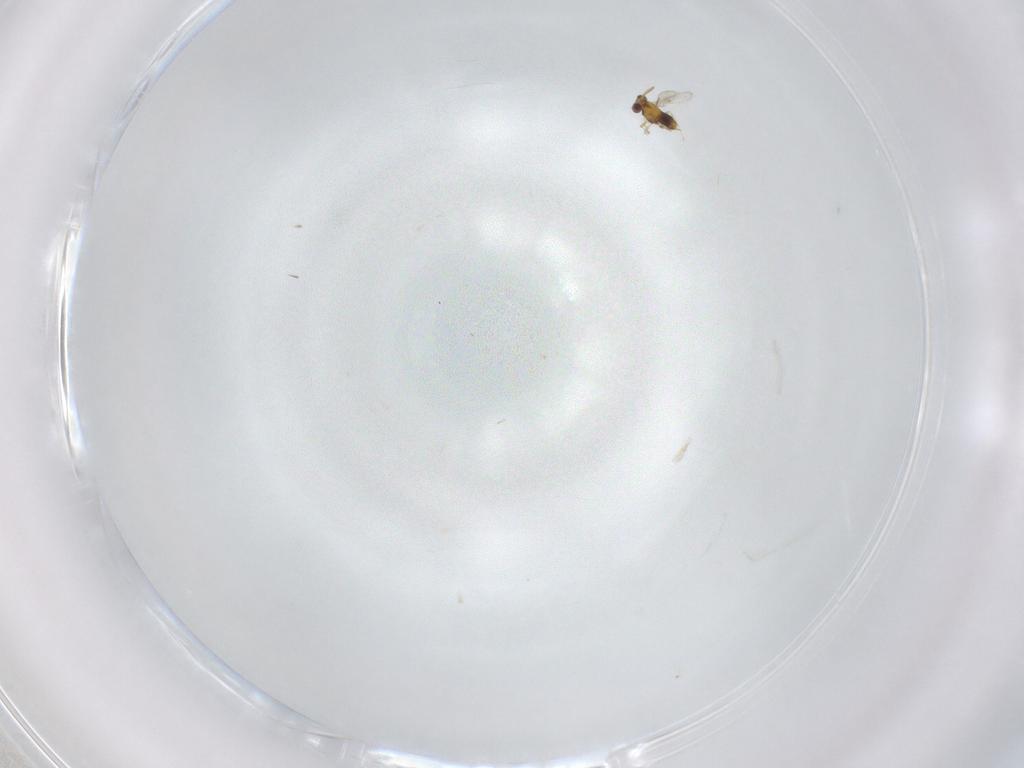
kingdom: Animalia
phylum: Arthropoda
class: Insecta
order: Hymenoptera
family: Aphelinidae
